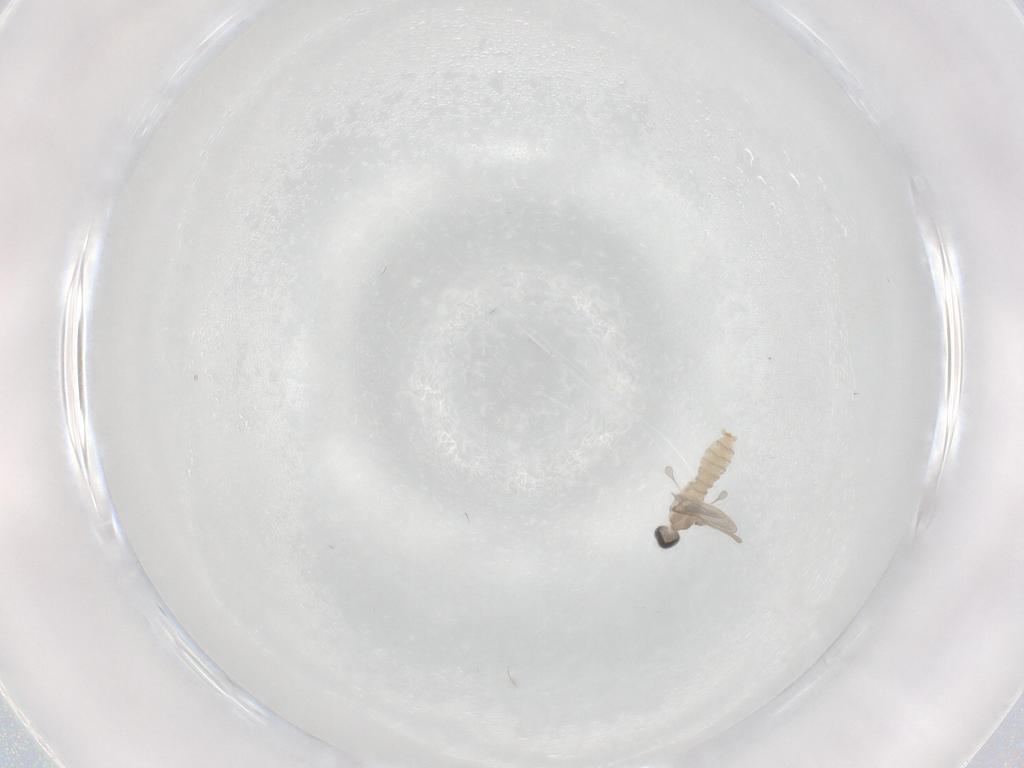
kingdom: Animalia
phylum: Arthropoda
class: Insecta
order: Diptera
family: Cecidomyiidae
